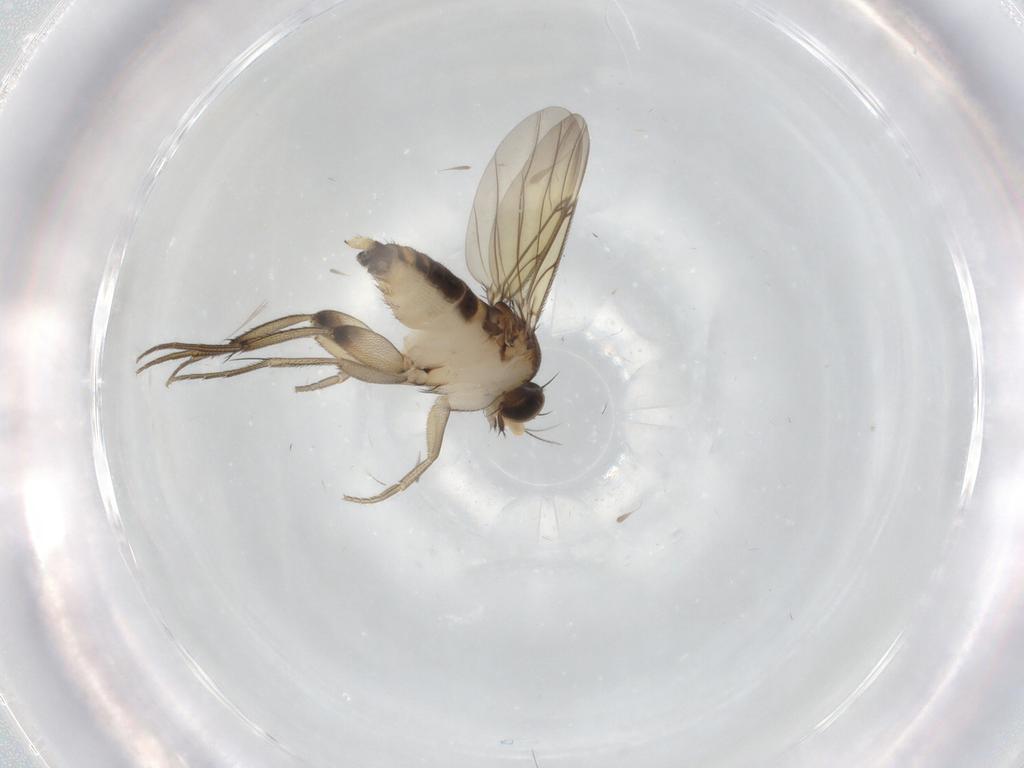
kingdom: Animalia
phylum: Arthropoda
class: Insecta
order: Diptera
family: Phoridae
